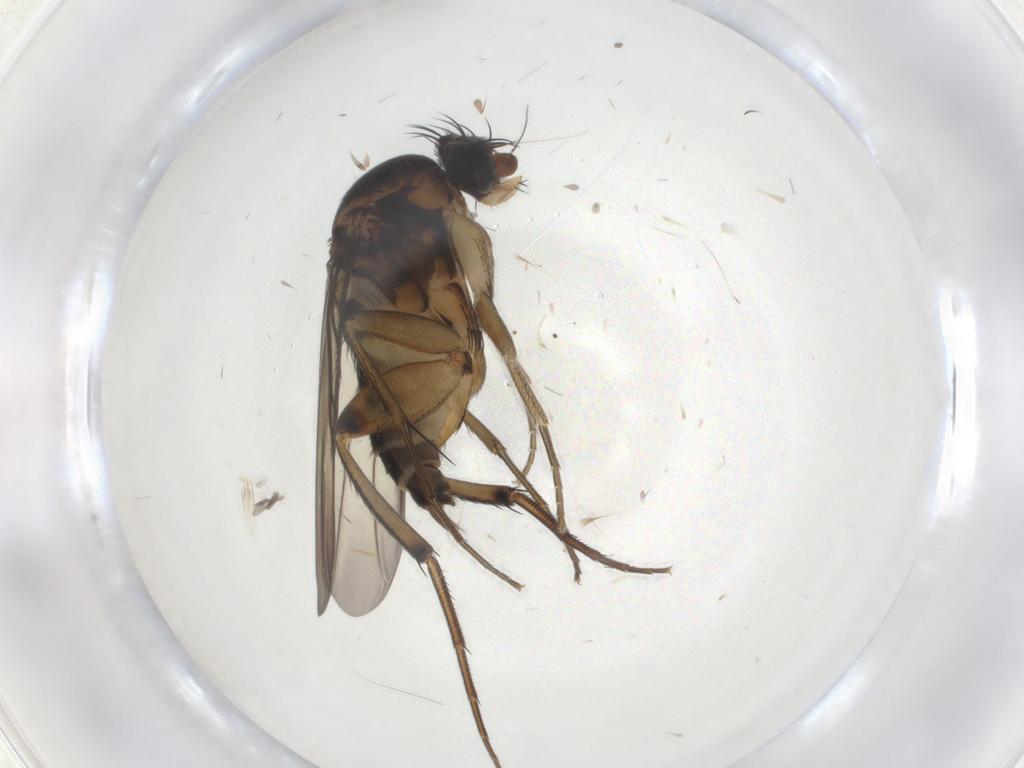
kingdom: Animalia
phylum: Arthropoda
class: Insecta
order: Diptera
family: Phoridae
